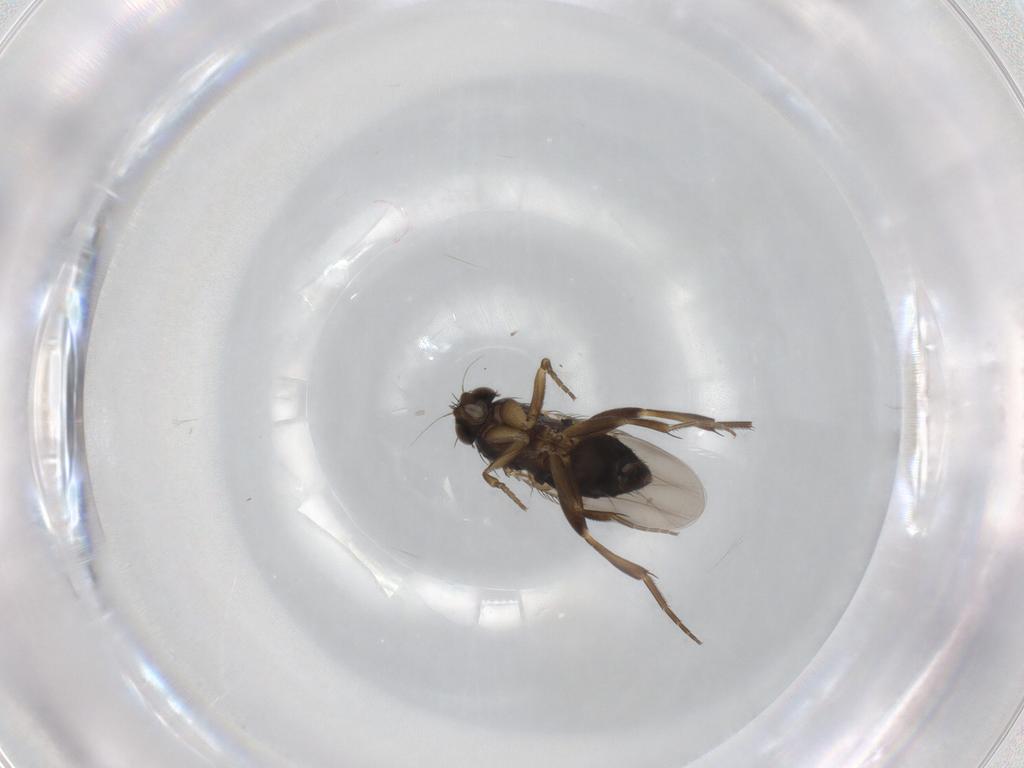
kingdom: Animalia
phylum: Arthropoda
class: Insecta
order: Diptera
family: Phoridae
